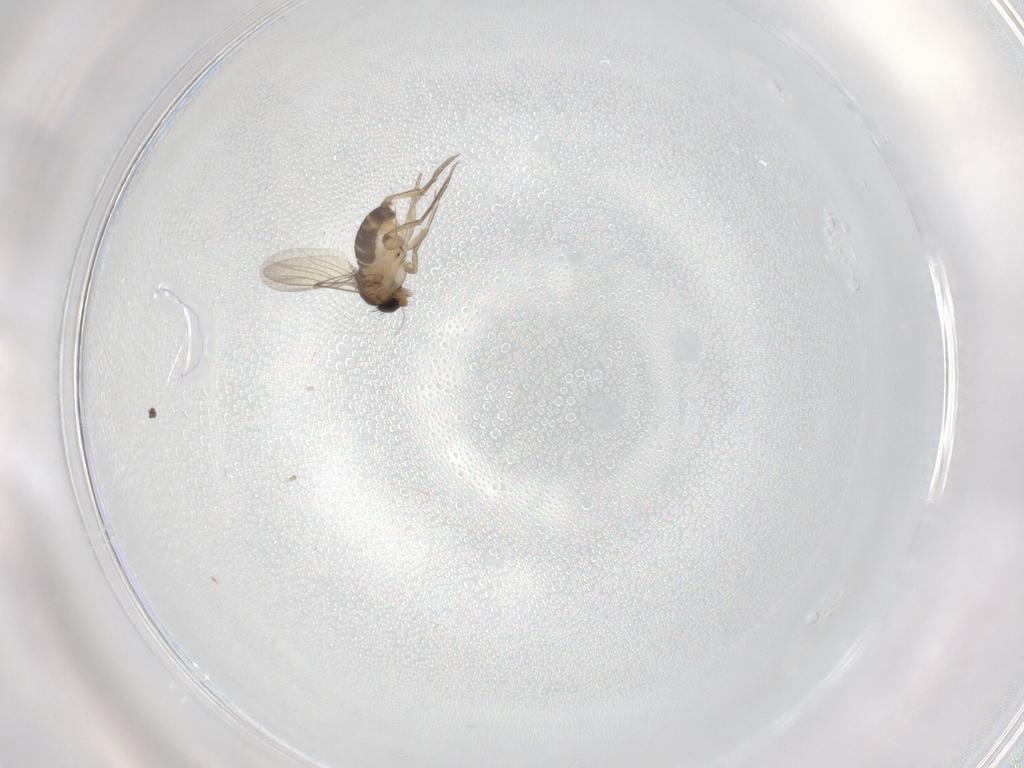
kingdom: Animalia
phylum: Arthropoda
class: Insecta
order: Diptera
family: Phoridae
